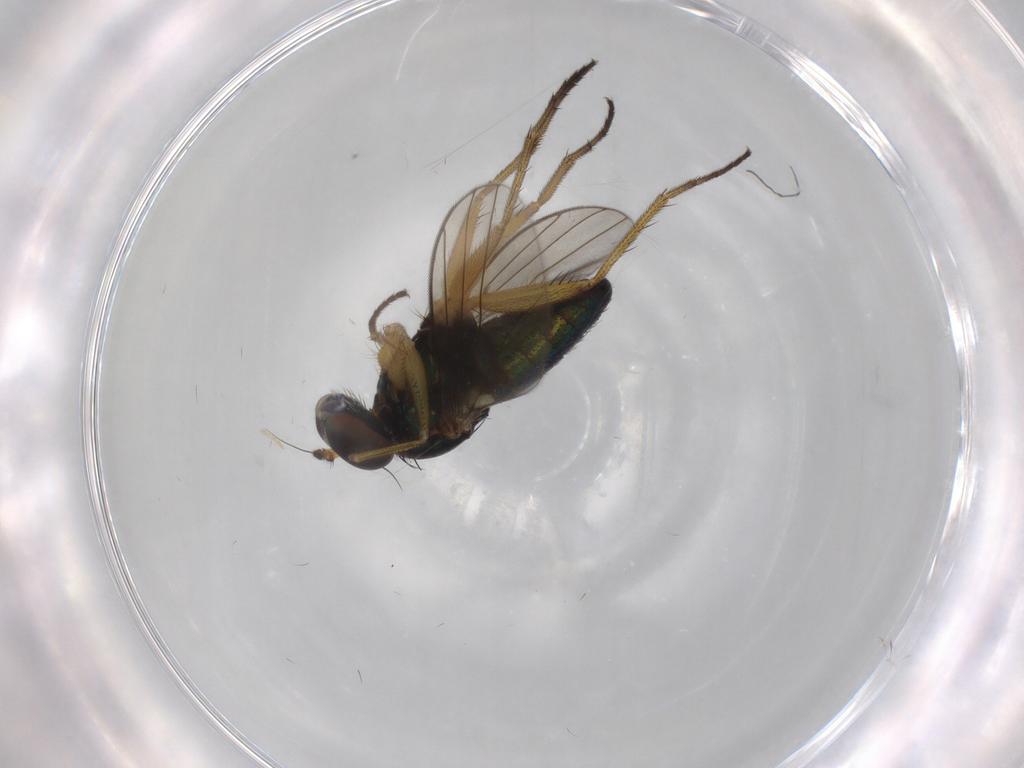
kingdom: Animalia
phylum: Arthropoda
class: Insecta
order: Diptera
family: Dolichopodidae
